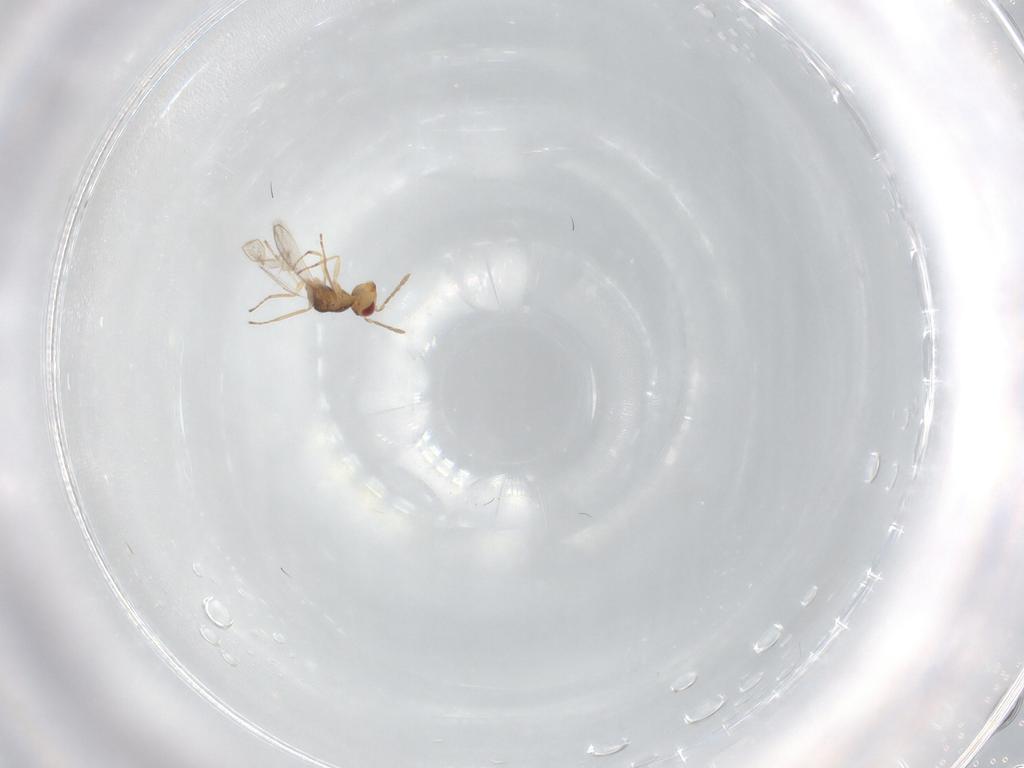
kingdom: Animalia
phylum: Arthropoda
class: Insecta
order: Hymenoptera
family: Eulophidae
